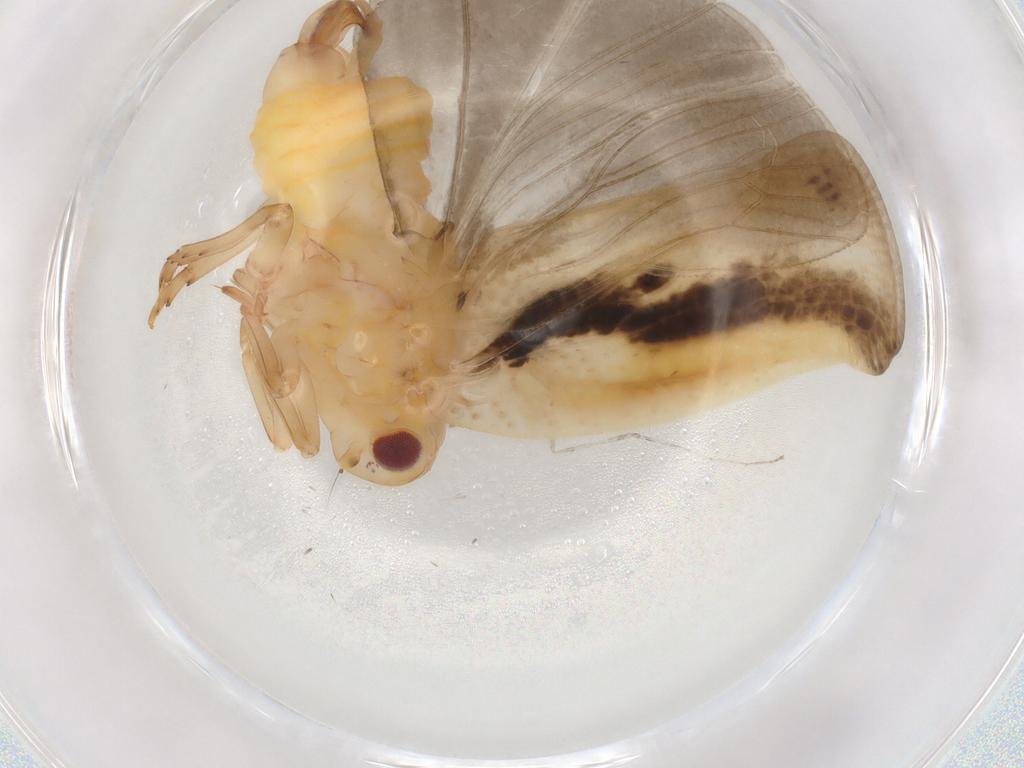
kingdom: Animalia
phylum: Arthropoda
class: Insecta
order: Hemiptera
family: Flatidae
